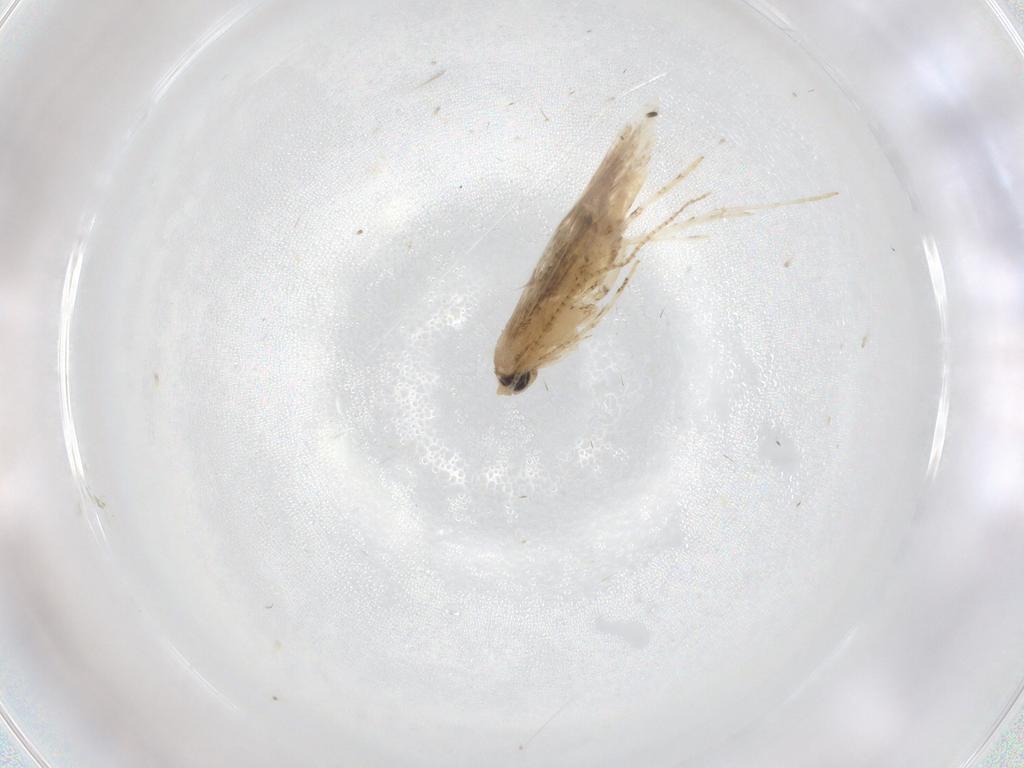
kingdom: Animalia
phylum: Arthropoda
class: Insecta
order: Lepidoptera
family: Gracillariidae
